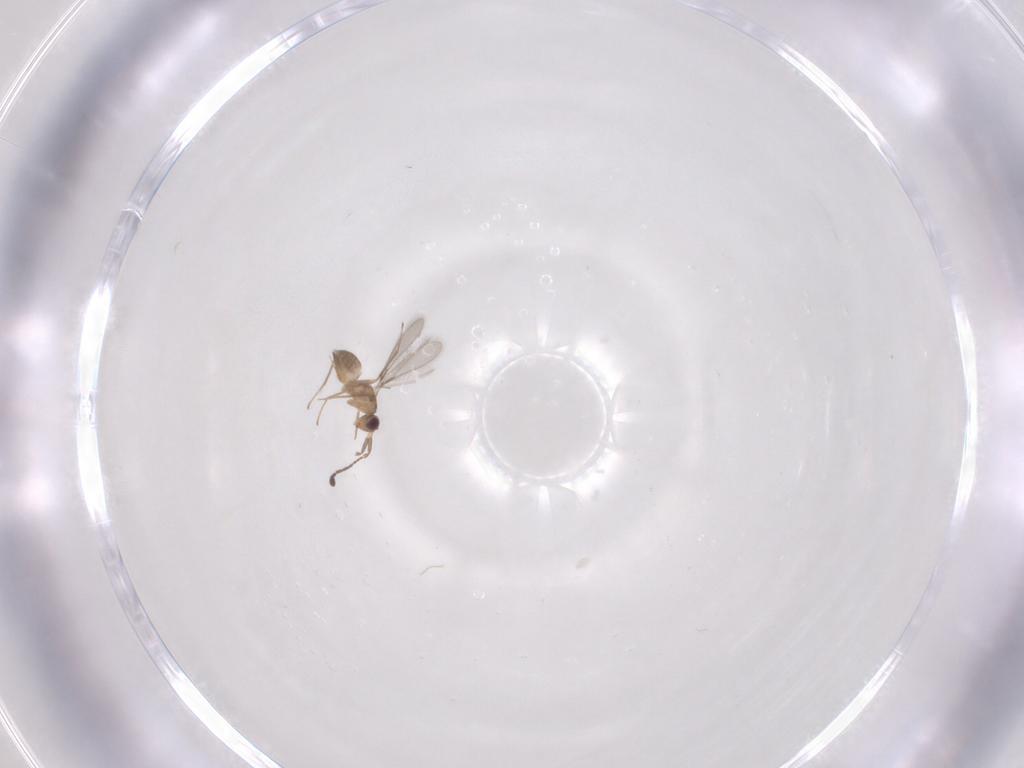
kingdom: Animalia
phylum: Arthropoda
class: Insecta
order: Hymenoptera
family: Mymaridae
